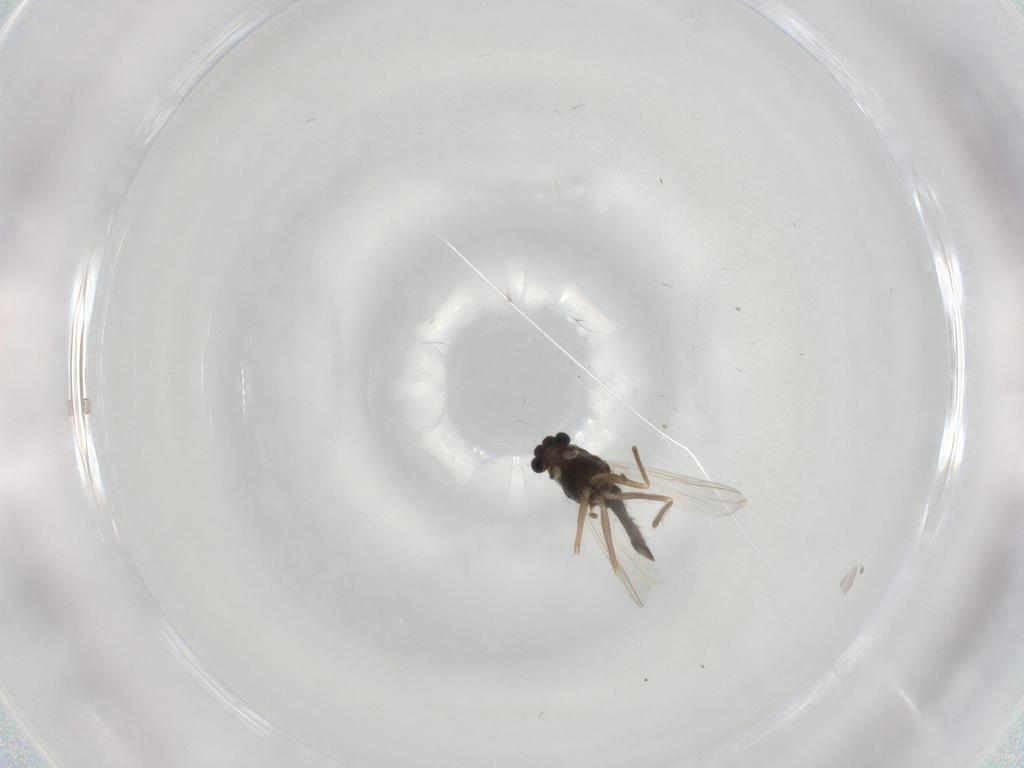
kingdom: Animalia
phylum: Arthropoda
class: Insecta
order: Diptera
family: Chironomidae
